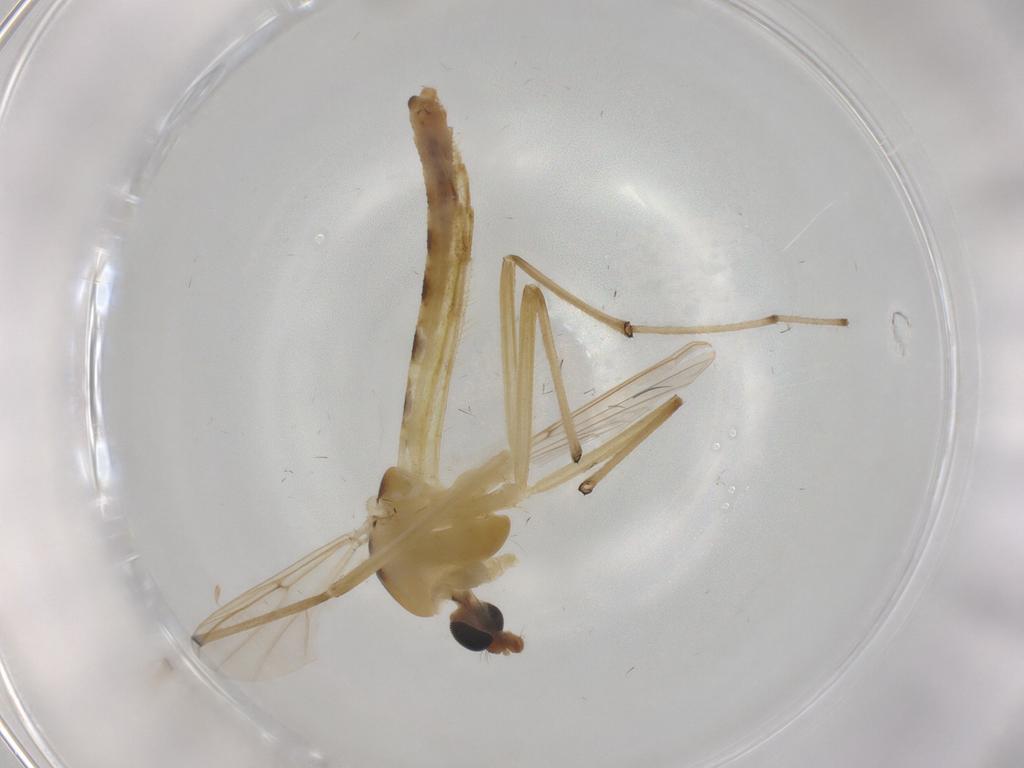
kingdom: Animalia
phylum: Arthropoda
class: Insecta
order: Diptera
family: Chironomidae
